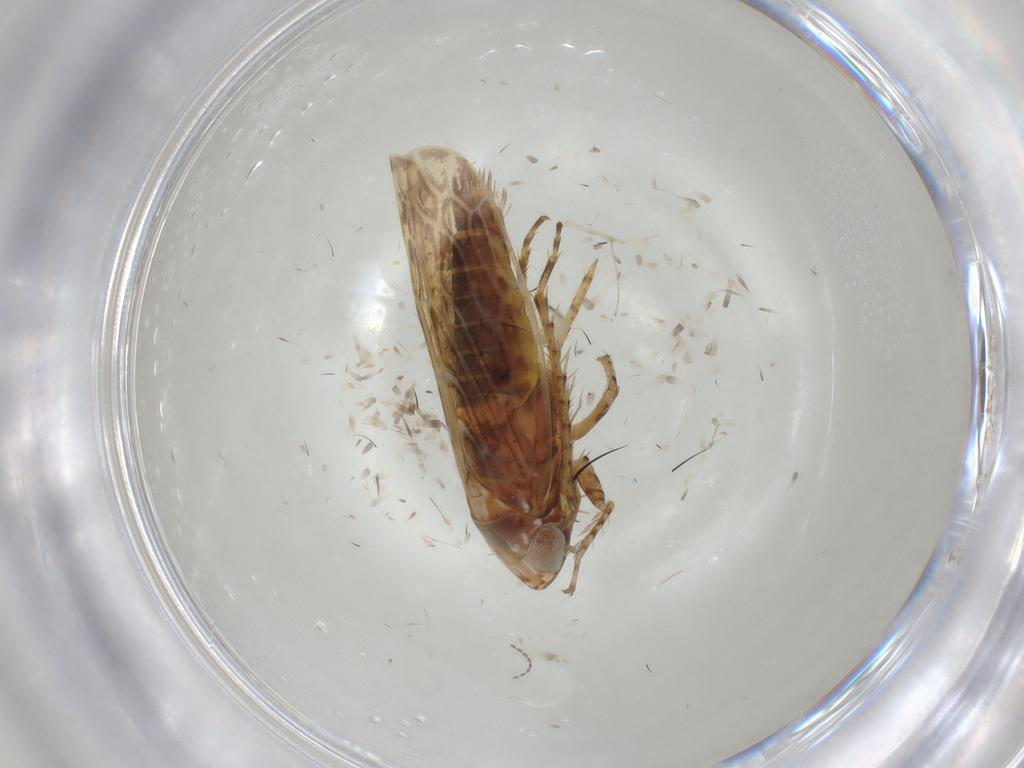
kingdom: Animalia
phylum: Arthropoda
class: Insecta
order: Hemiptera
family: Cicadellidae
